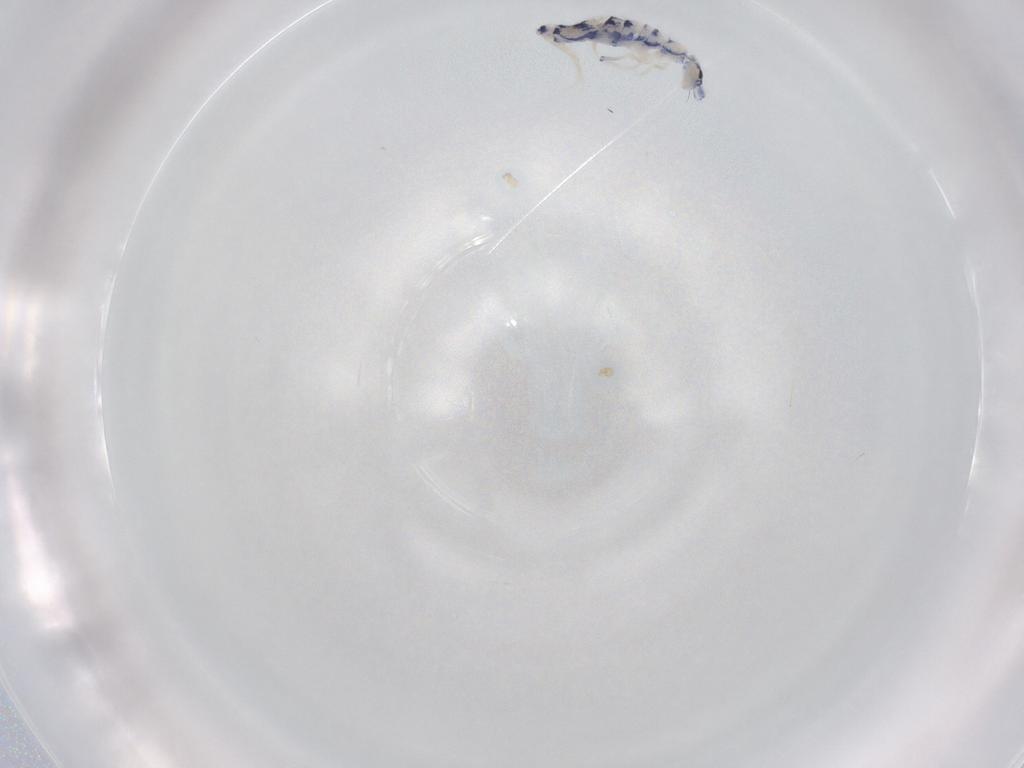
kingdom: Animalia
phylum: Arthropoda
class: Collembola
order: Entomobryomorpha
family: Entomobryidae
